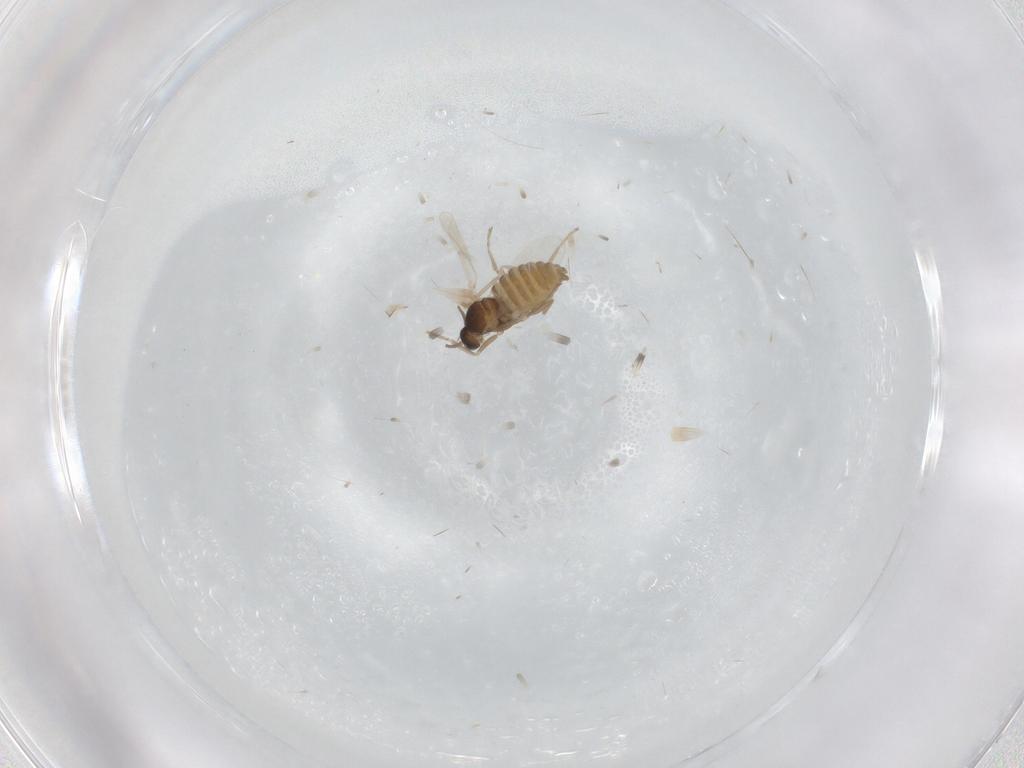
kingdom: Animalia
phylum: Arthropoda
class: Insecta
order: Diptera
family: Cecidomyiidae
